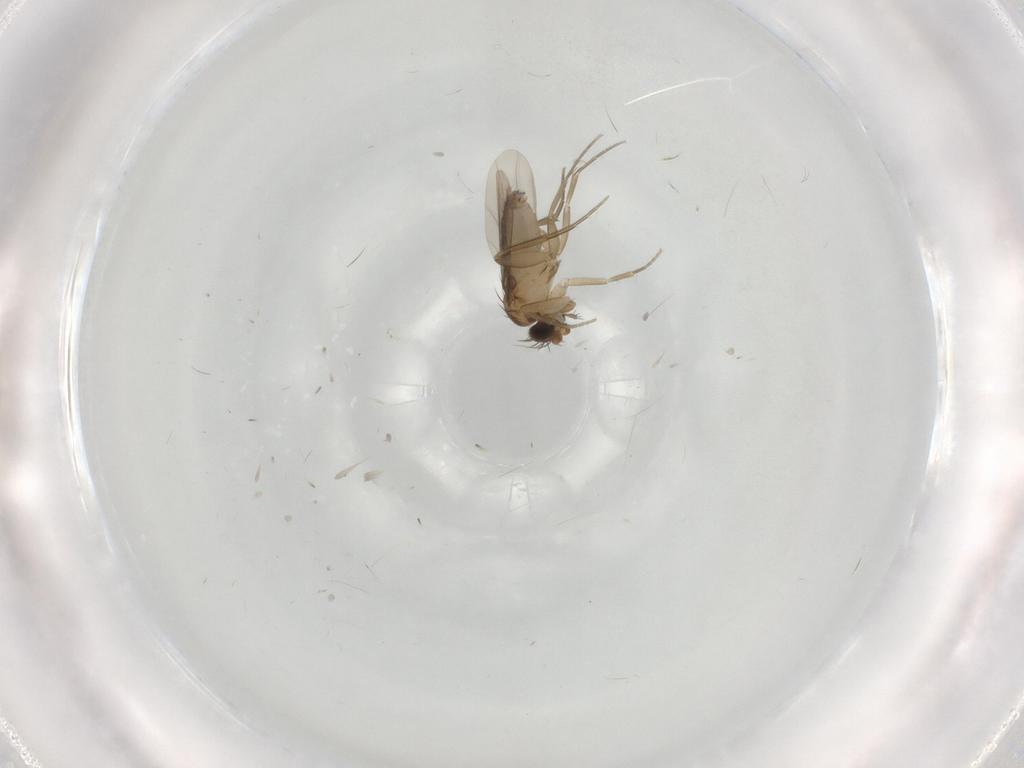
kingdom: Animalia
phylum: Arthropoda
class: Insecta
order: Diptera
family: Phoridae
